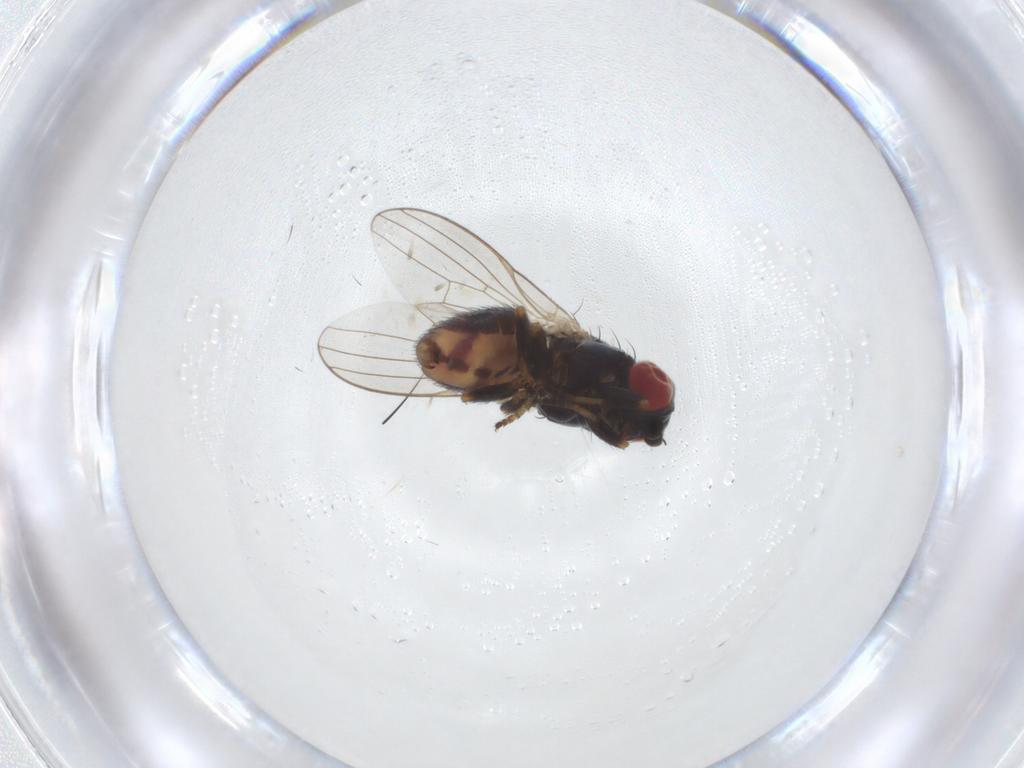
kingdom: Animalia
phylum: Arthropoda
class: Insecta
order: Diptera
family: Chamaemyiidae
